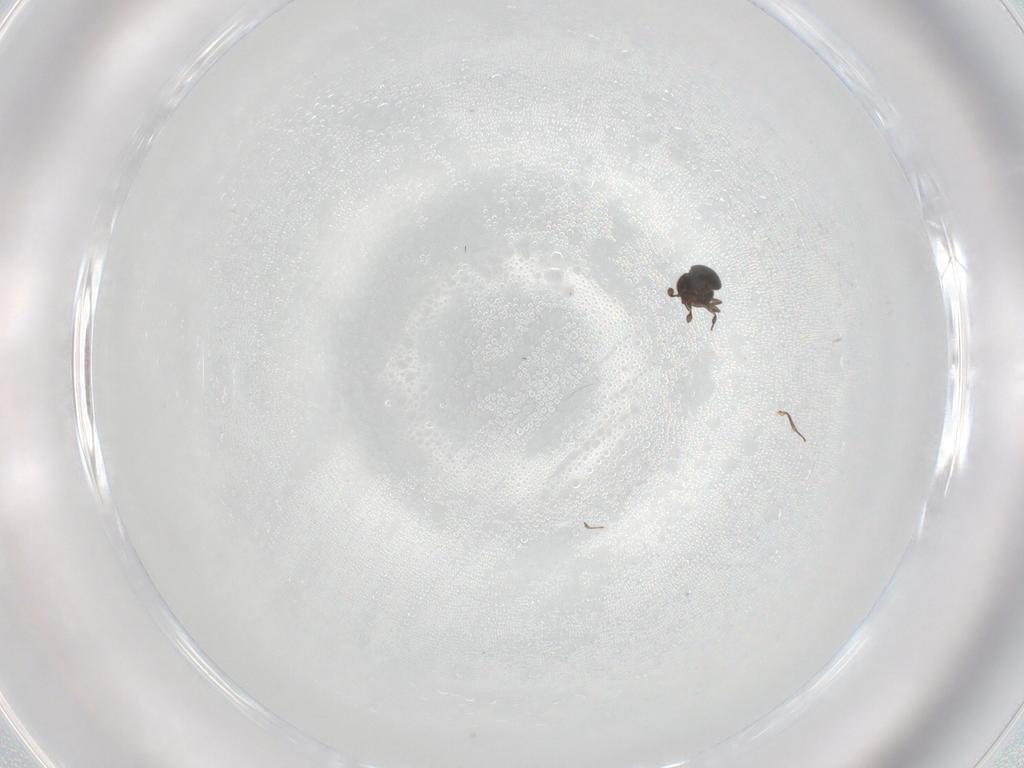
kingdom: Animalia
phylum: Arthropoda
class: Insecta
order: Hymenoptera
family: Scelionidae
